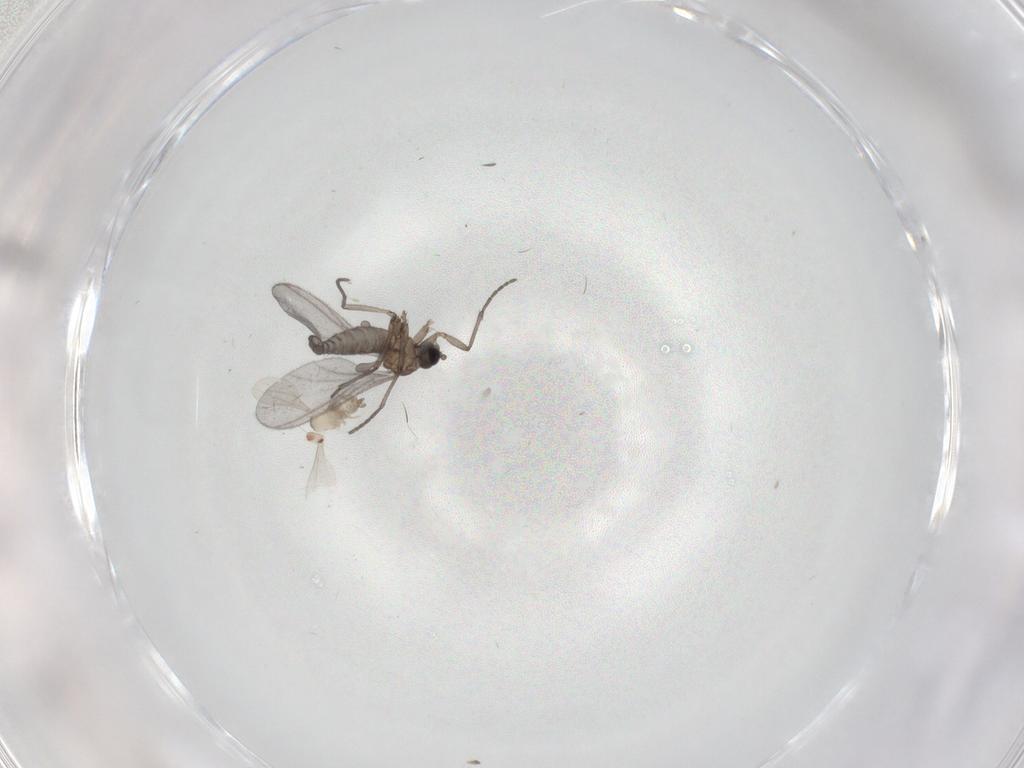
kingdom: Animalia
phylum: Arthropoda
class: Insecta
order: Diptera
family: Sciaridae
